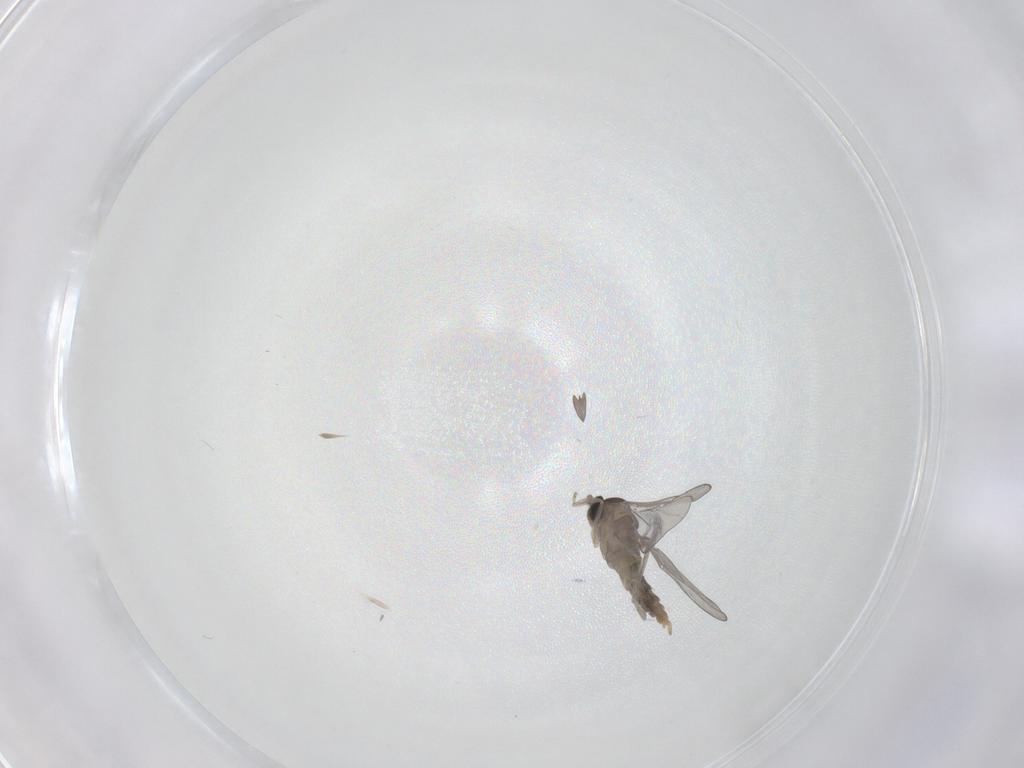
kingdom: Animalia
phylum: Arthropoda
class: Insecta
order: Diptera
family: Cecidomyiidae
